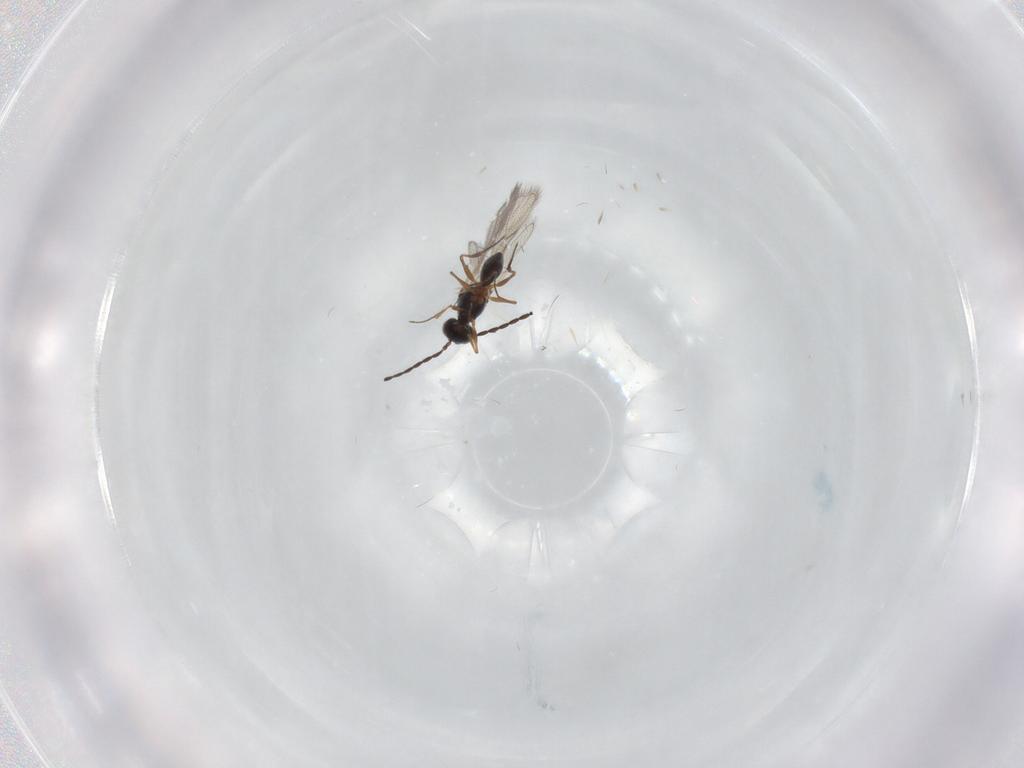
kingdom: Animalia
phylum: Arthropoda
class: Insecta
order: Hymenoptera
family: Figitidae
